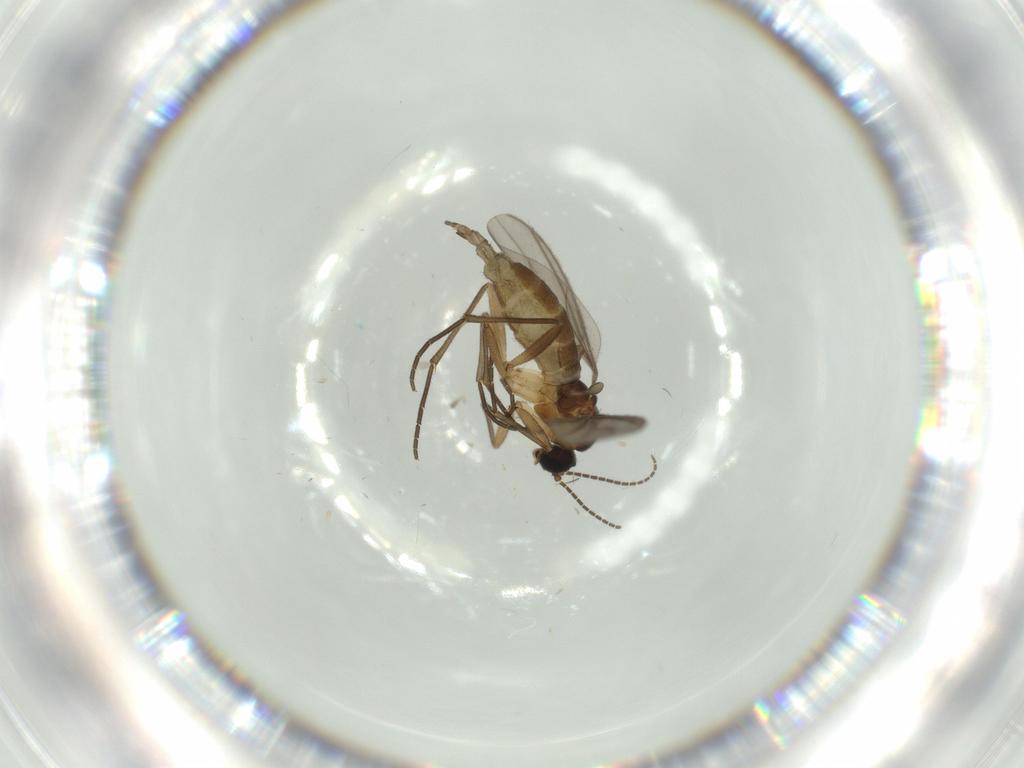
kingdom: Animalia
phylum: Arthropoda
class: Insecta
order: Diptera
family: Sciaridae
